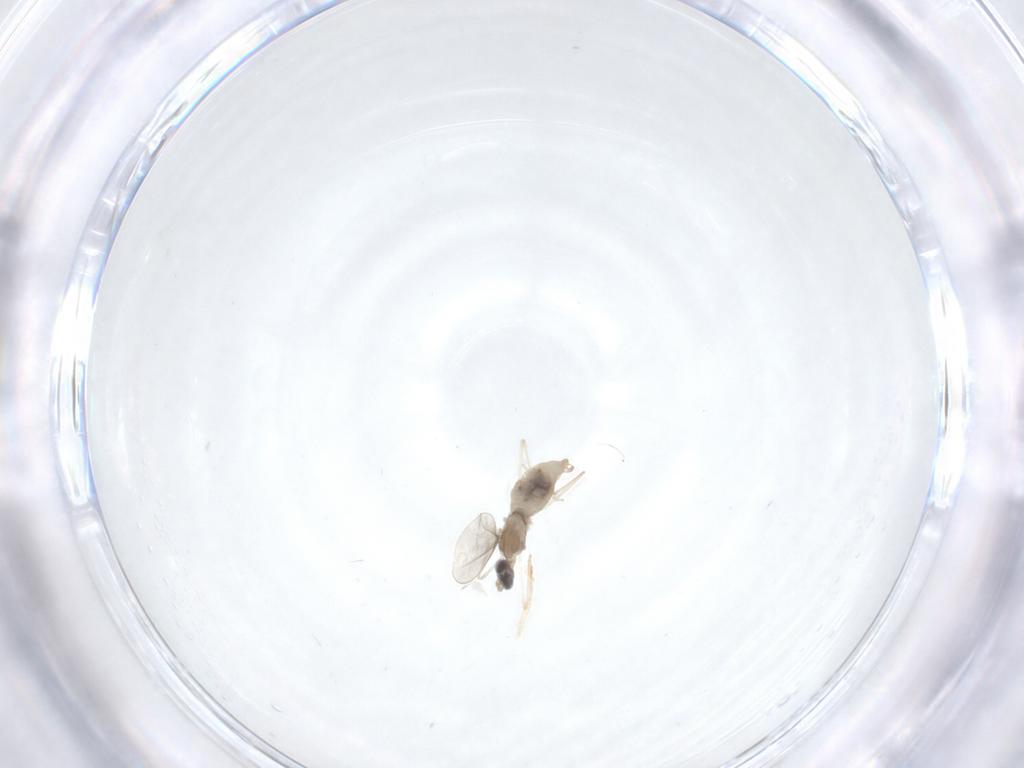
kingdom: Animalia
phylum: Arthropoda
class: Insecta
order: Diptera
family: Cecidomyiidae
